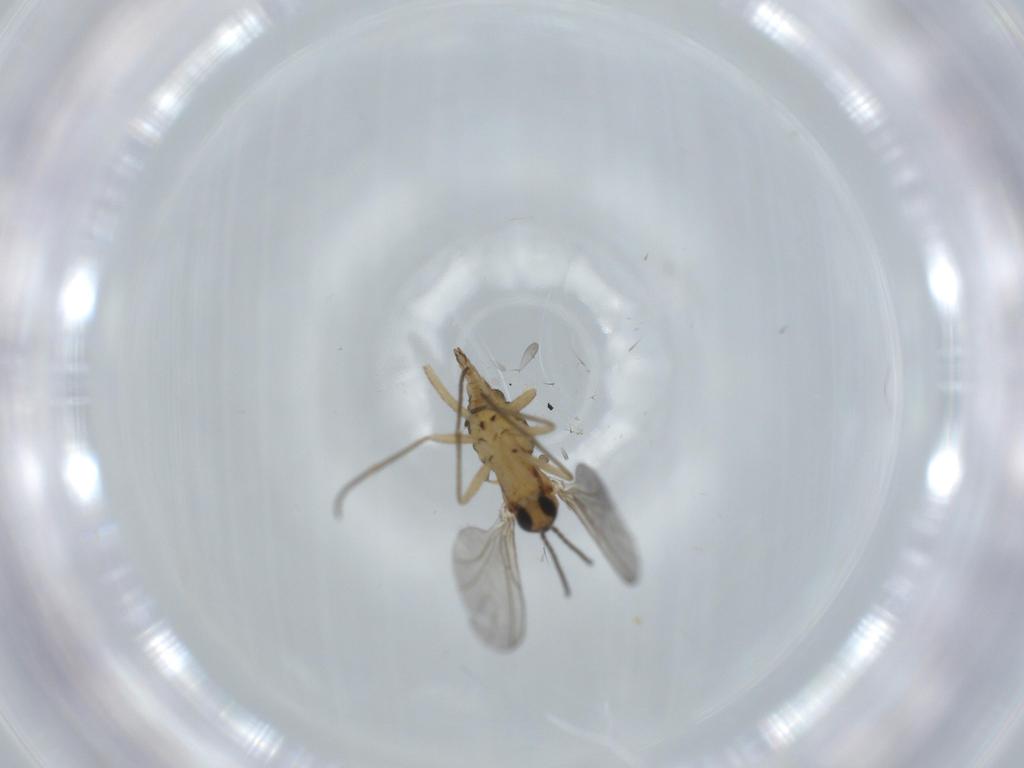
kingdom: Animalia
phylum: Arthropoda
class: Insecta
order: Diptera
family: Sciaridae
